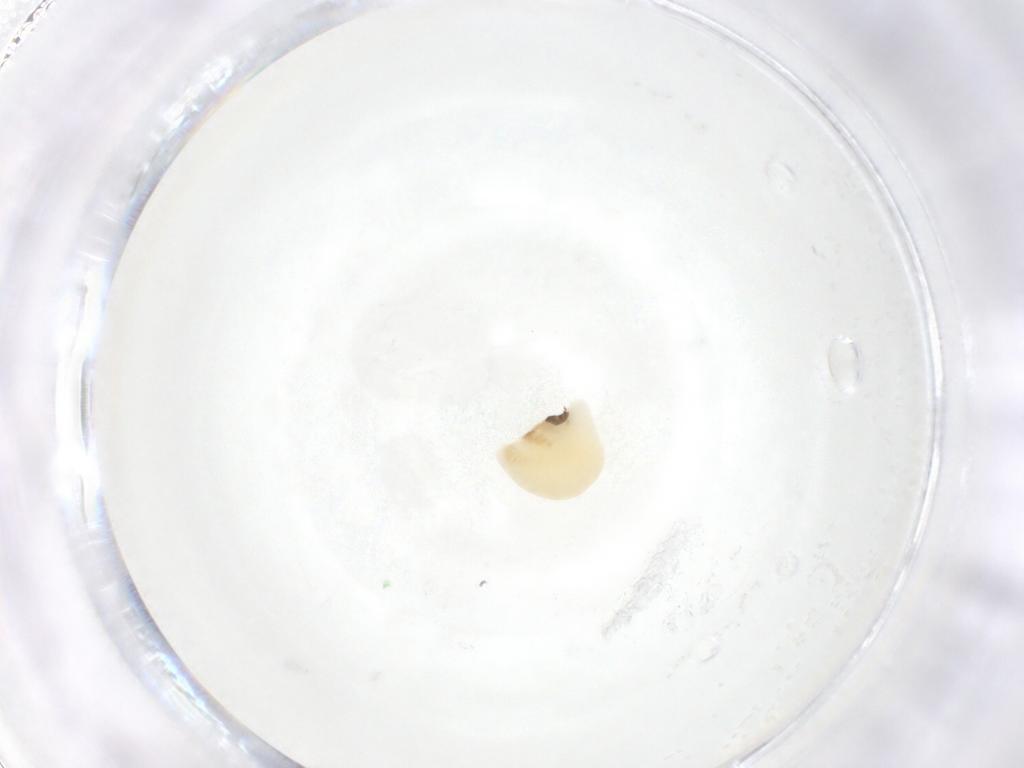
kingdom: Animalia
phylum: Arthropoda
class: Insecta
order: Hymenoptera
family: Eulophidae
